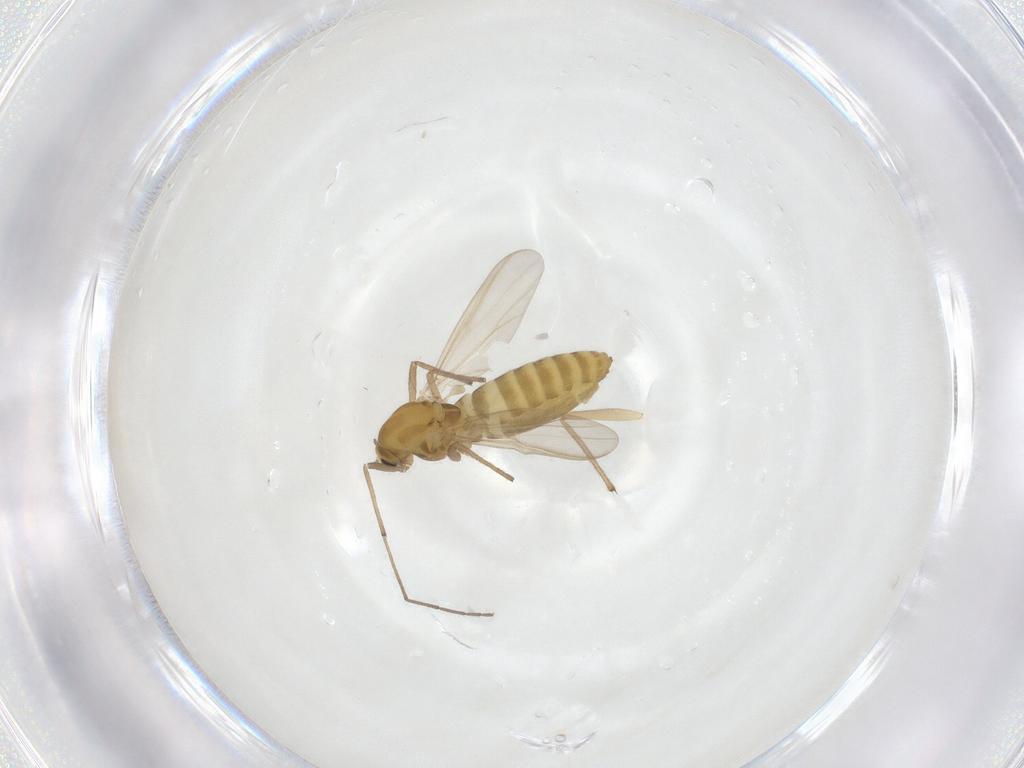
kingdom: Animalia
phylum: Arthropoda
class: Insecta
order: Diptera
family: Chironomidae
